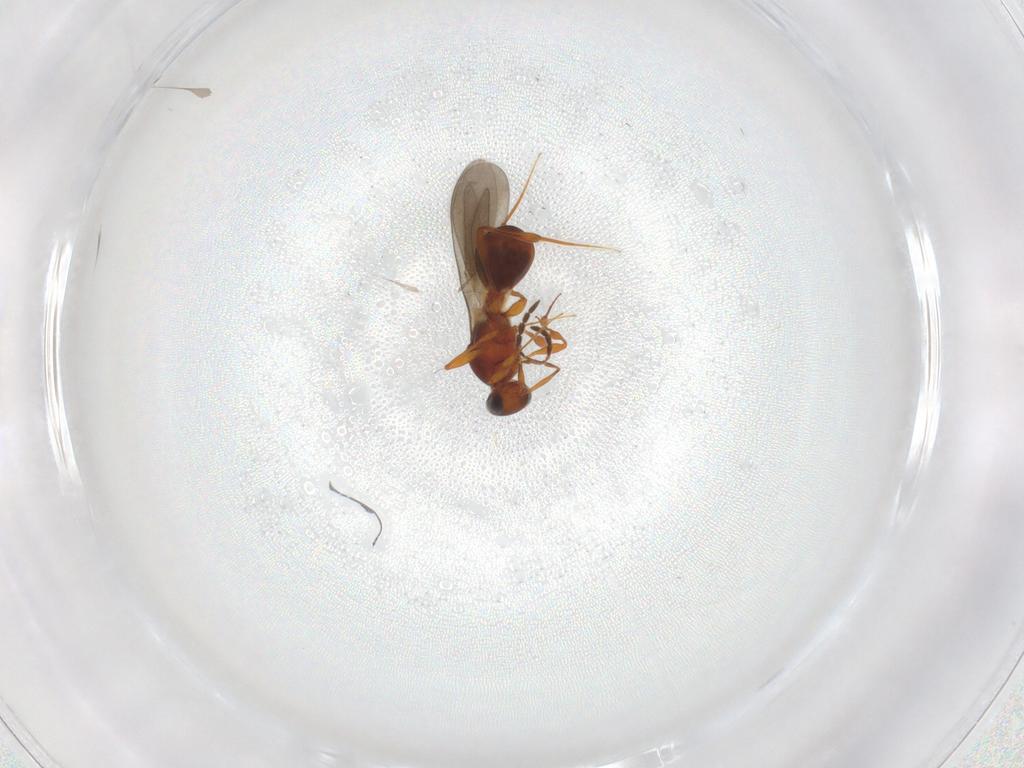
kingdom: Animalia
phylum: Arthropoda
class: Insecta
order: Hymenoptera
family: Platygastridae
